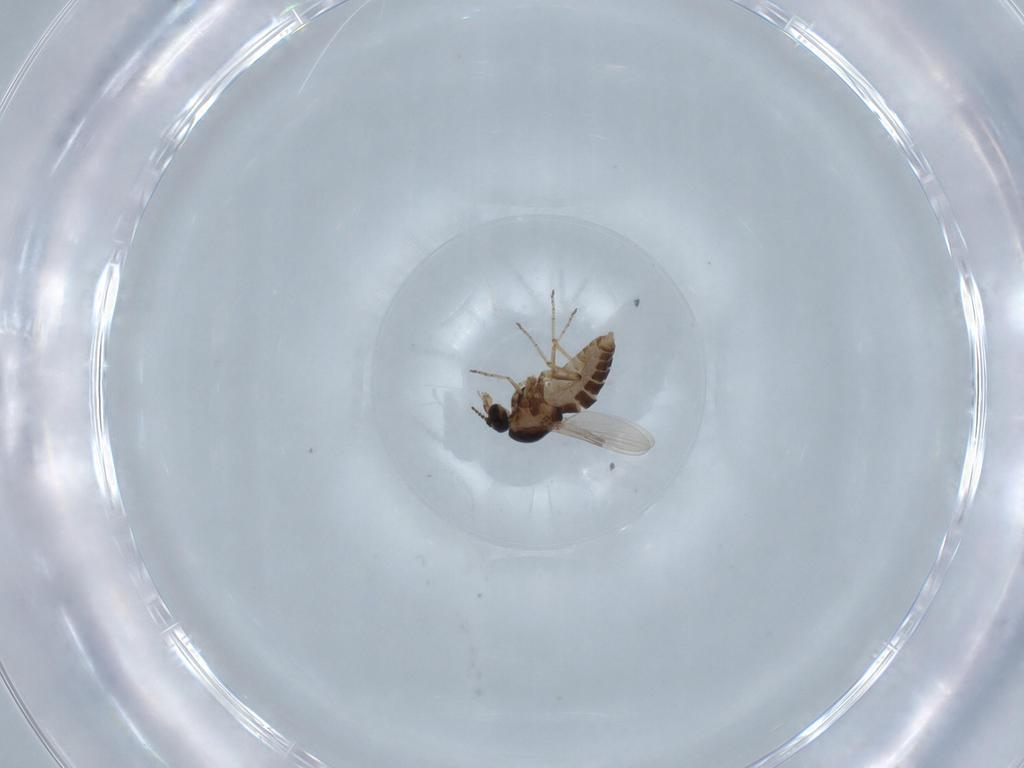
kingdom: Animalia
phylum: Arthropoda
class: Insecta
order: Diptera
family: Ceratopogonidae
